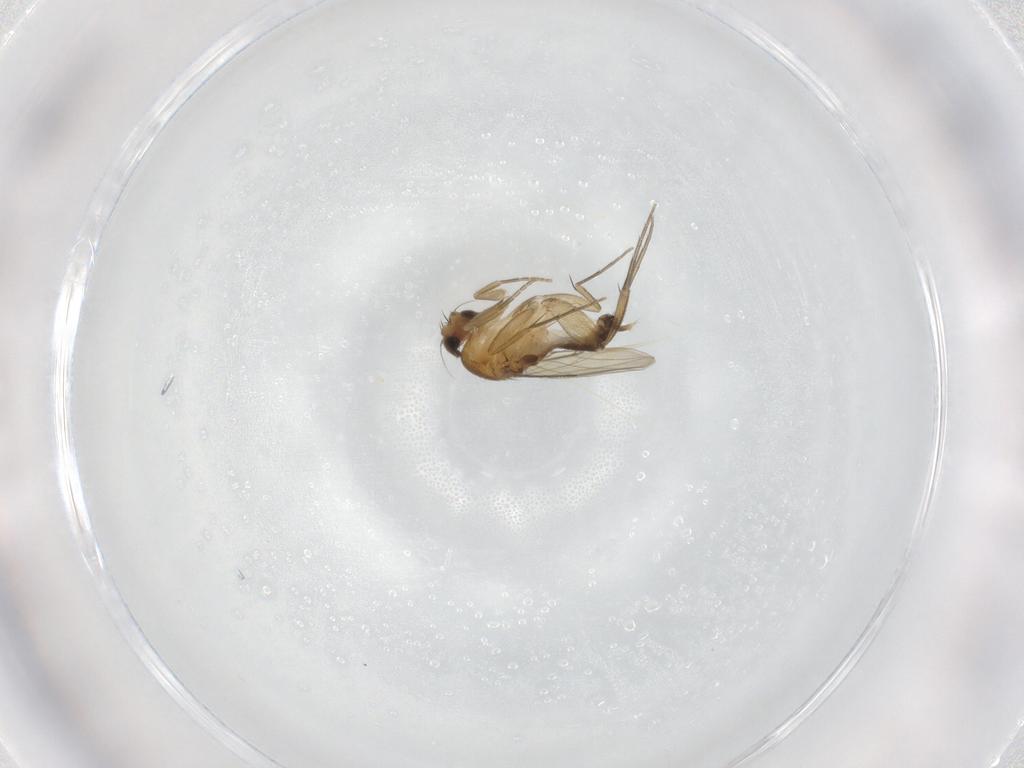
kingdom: Animalia
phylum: Arthropoda
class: Insecta
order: Diptera
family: Phoridae
